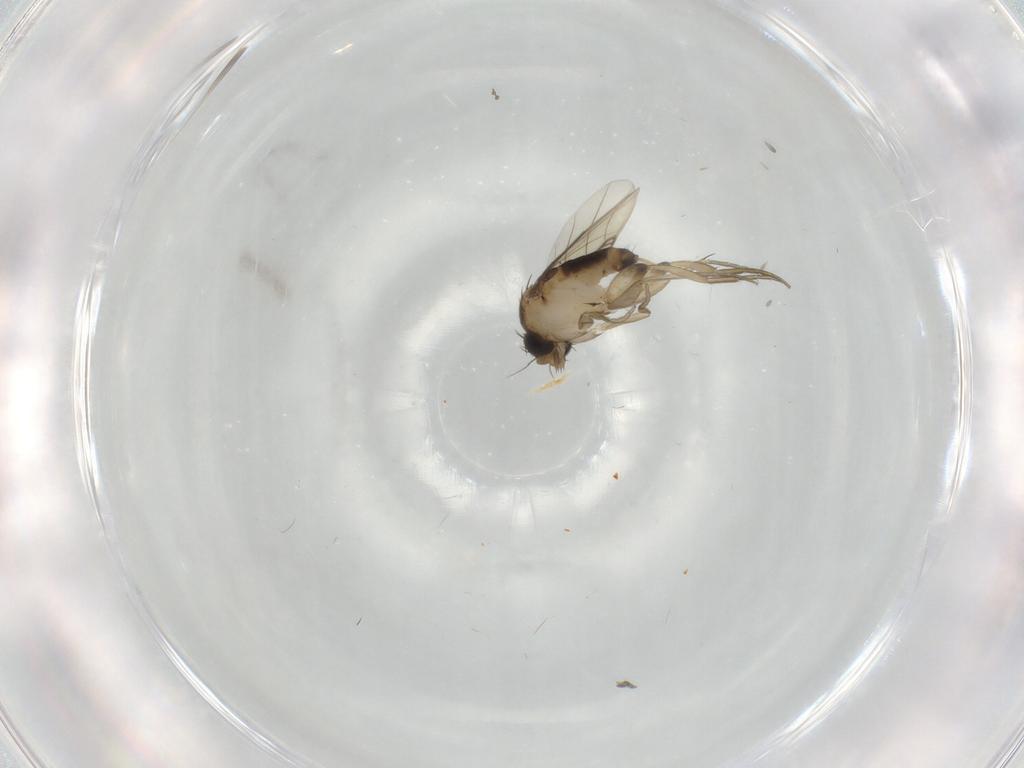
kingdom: Animalia
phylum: Arthropoda
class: Insecta
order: Diptera
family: Phoridae
